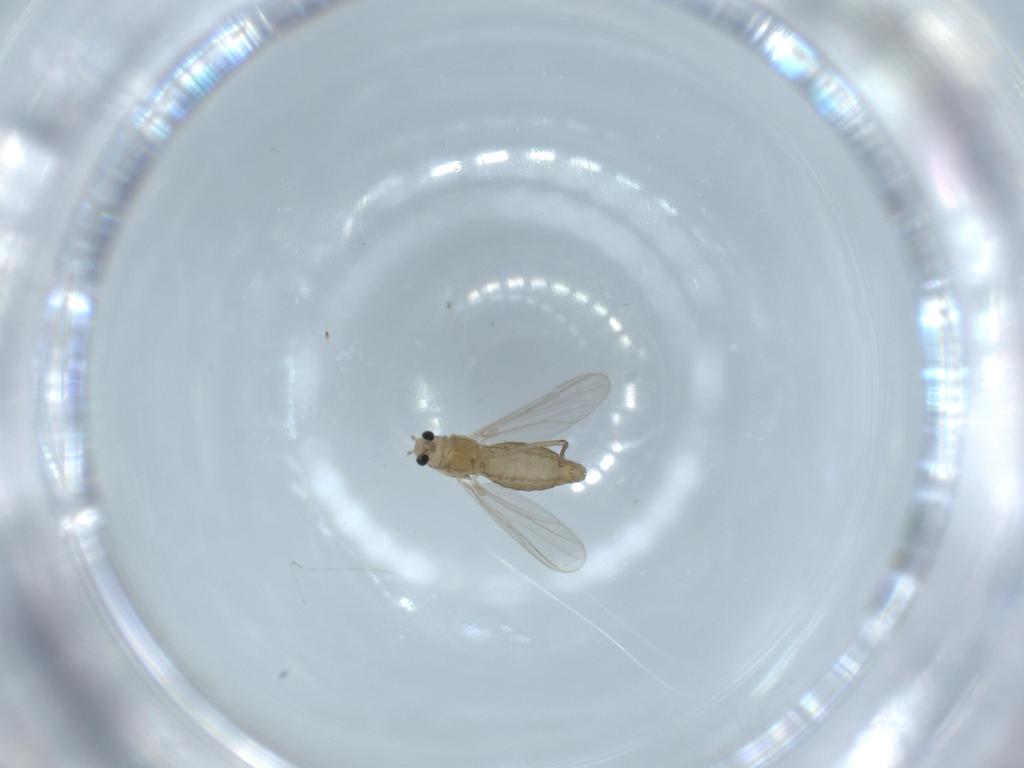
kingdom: Animalia
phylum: Arthropoda
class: Insecta
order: Diptera
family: Chironomidae
